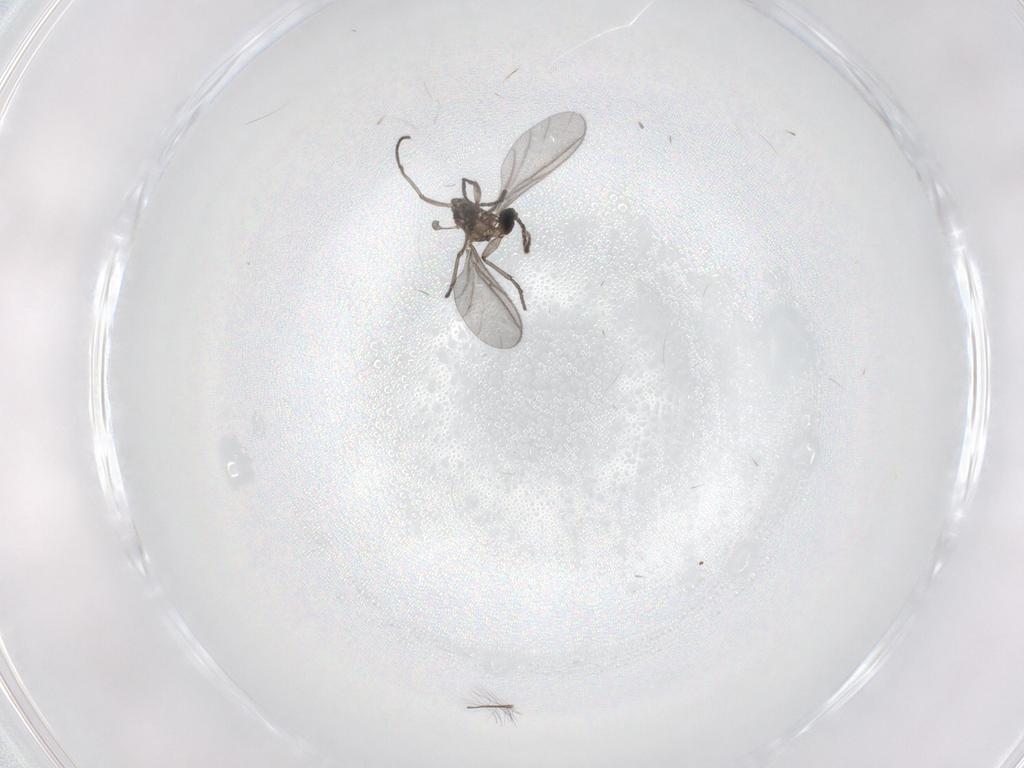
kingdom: Animalia
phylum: Arthropoda
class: Insecta
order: Diptera
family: Sciaridae
